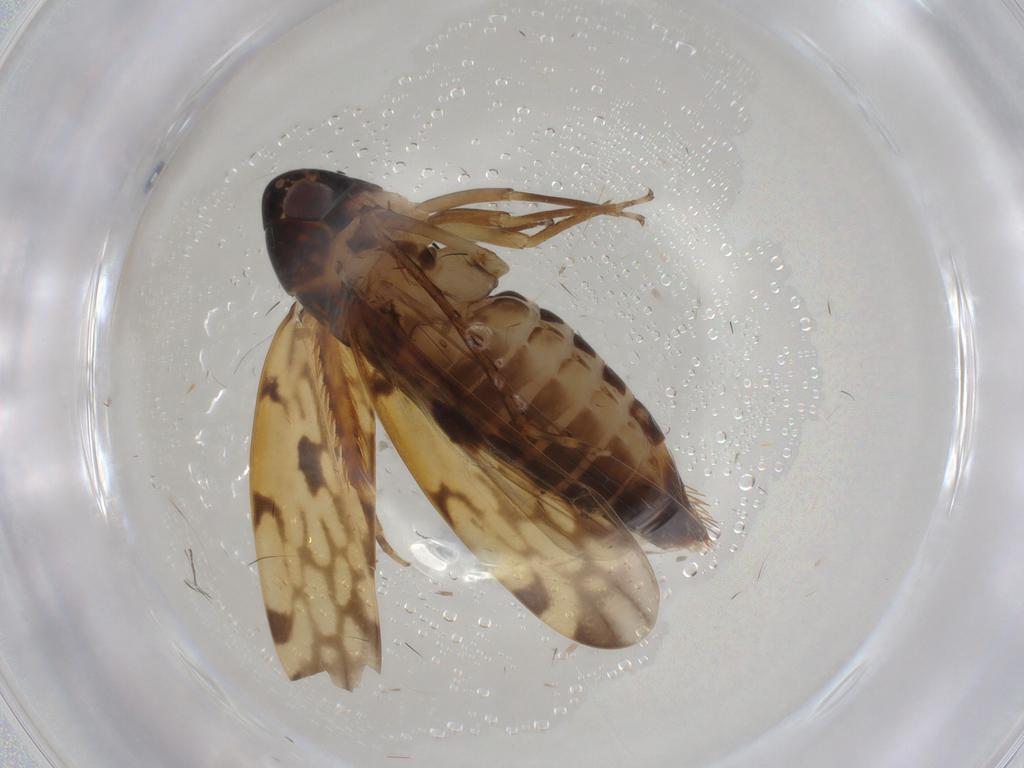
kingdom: Animalia
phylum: Arthropoda
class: Insecta
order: Hemiptera
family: Cicadellidae
